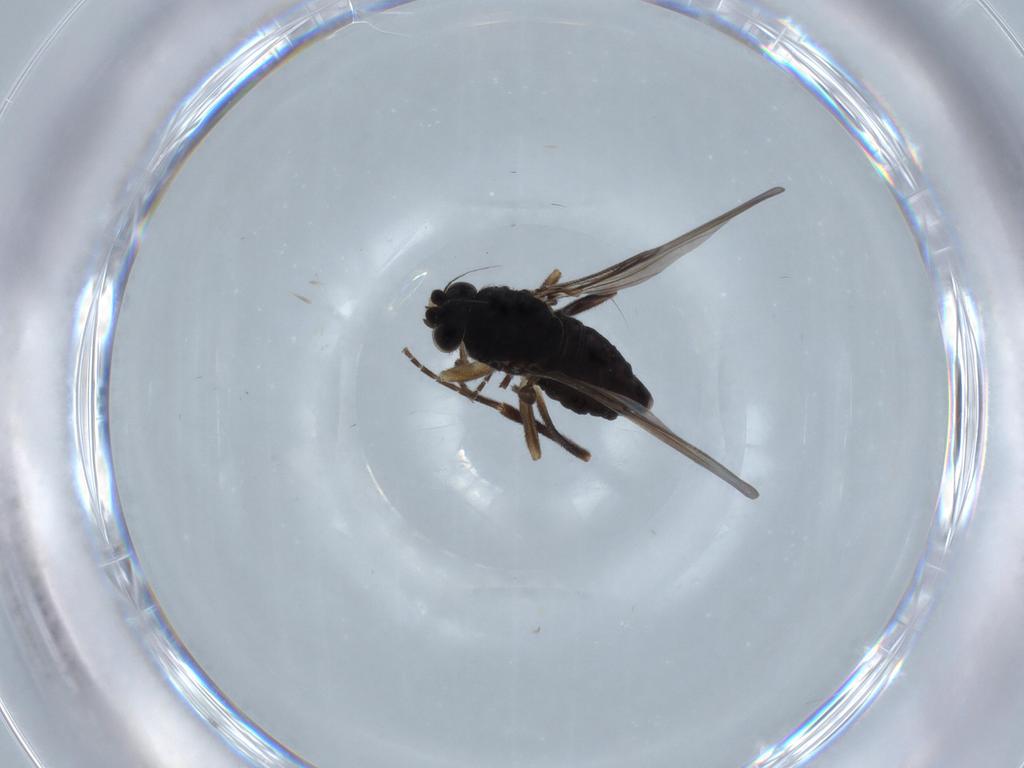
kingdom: Animalia
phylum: Arthropoda
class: Insecta
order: Diptera
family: Phoridae
